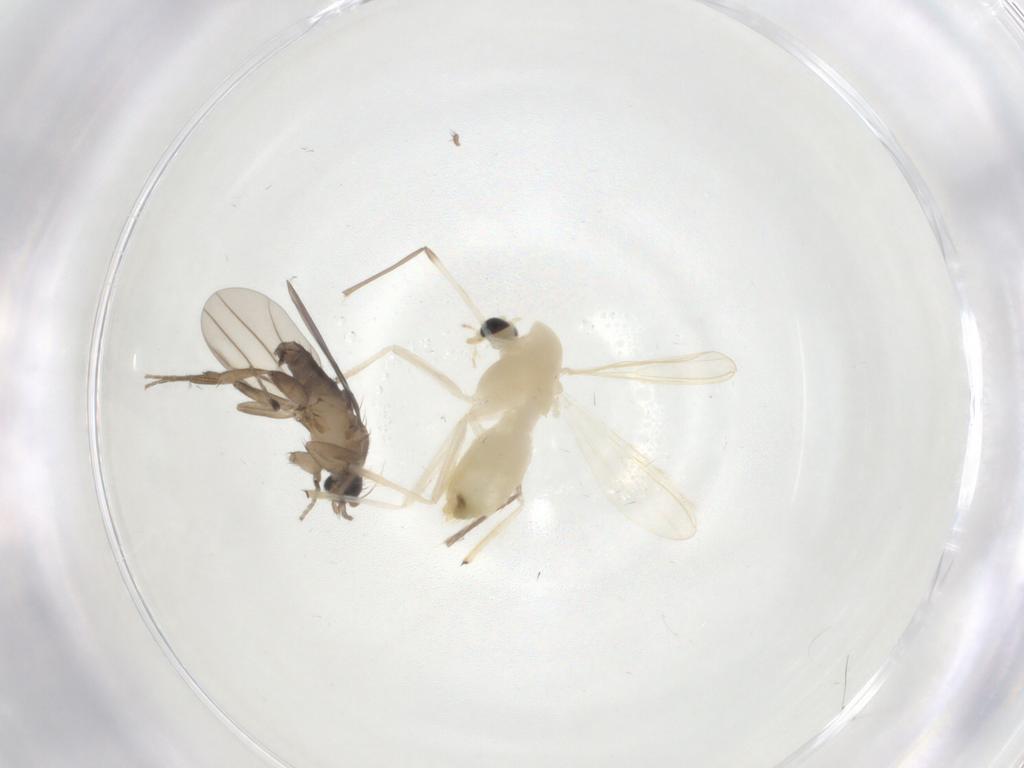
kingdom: Animalia
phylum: Arthropoda
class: Insecta
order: Diptera
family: Chironomidae
